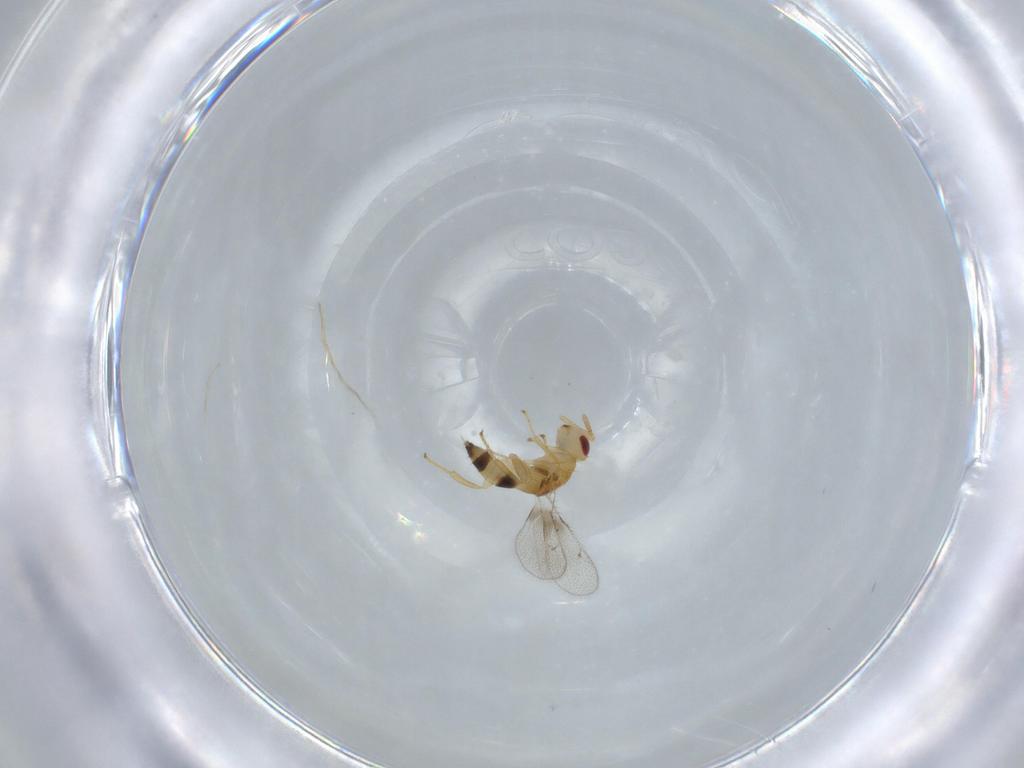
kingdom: Animalia
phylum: Arthropoda
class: Insecta
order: Hymenoptera
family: Torymidae
